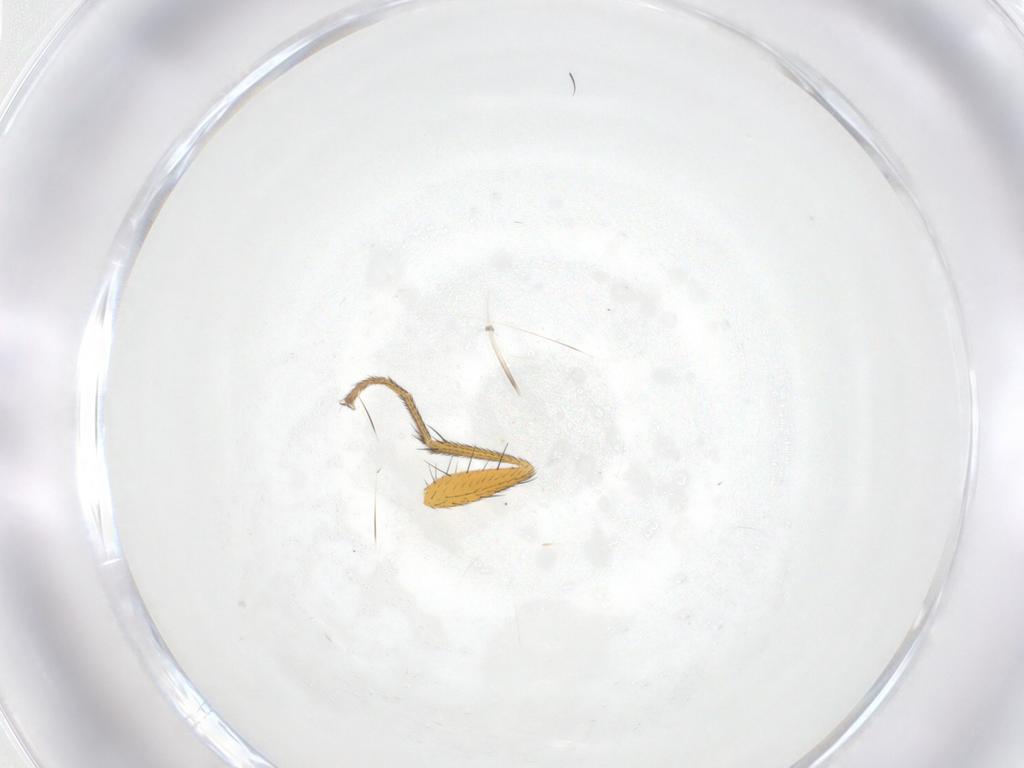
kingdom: Animalia
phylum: Arthropoda
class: Insecta
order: Diptera
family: Muscidae
